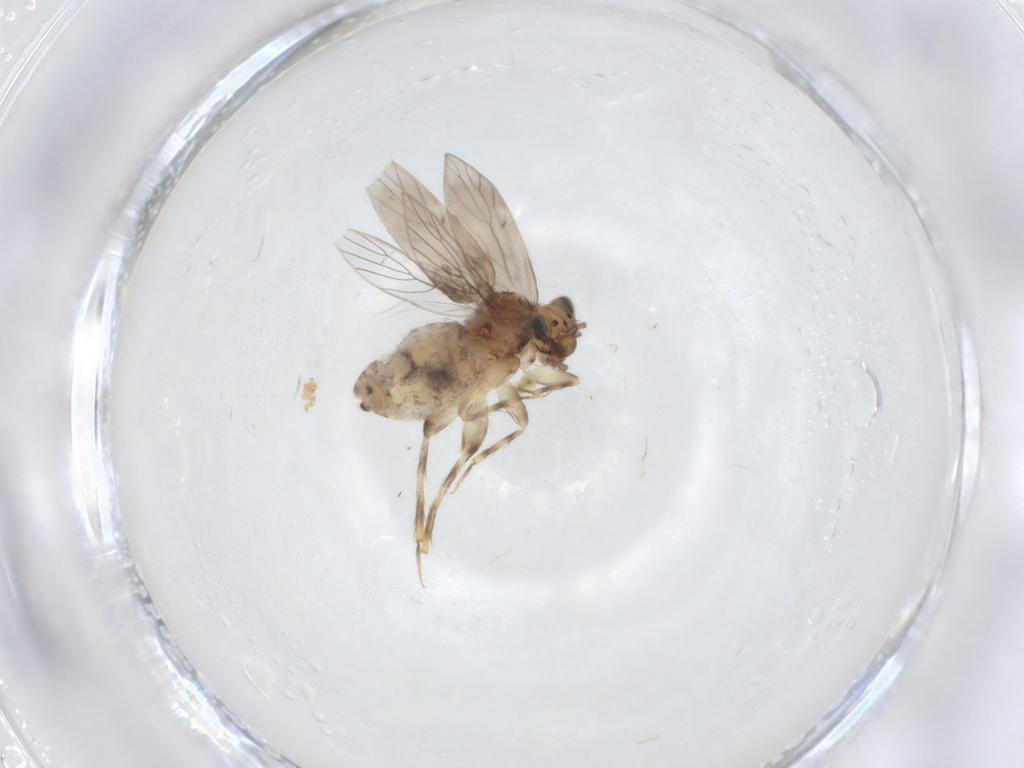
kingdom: Animalia
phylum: Arthropoda
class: Insecta
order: Psocodea
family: Lepidopsocidae
